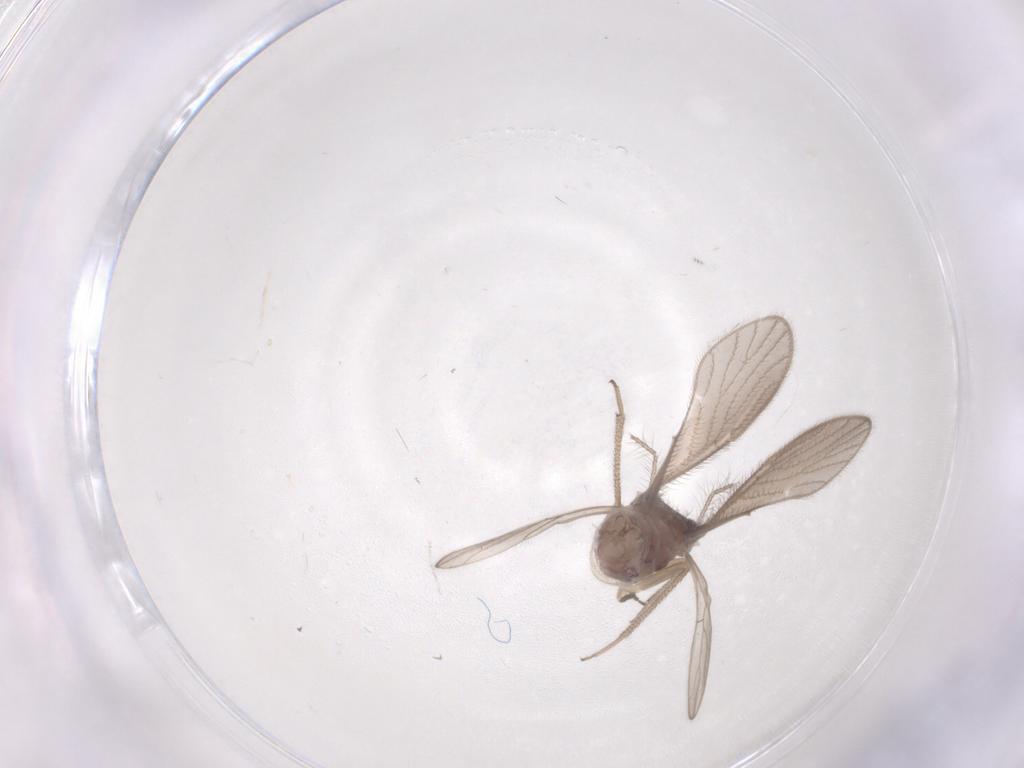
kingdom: Animalia
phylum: Arthropoda
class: Insecta
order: Psocodea
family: Caeciliusidae
